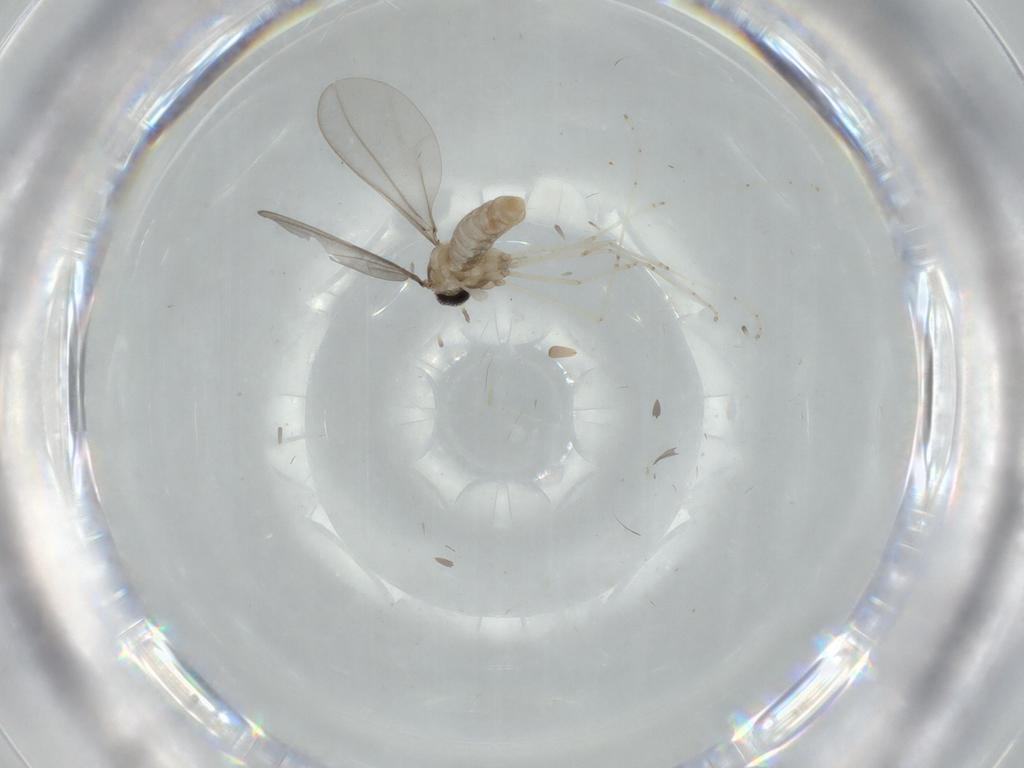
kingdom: Animalia
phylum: Arthropoda
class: Insecta
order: Diptera
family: Cecidomyiidae
